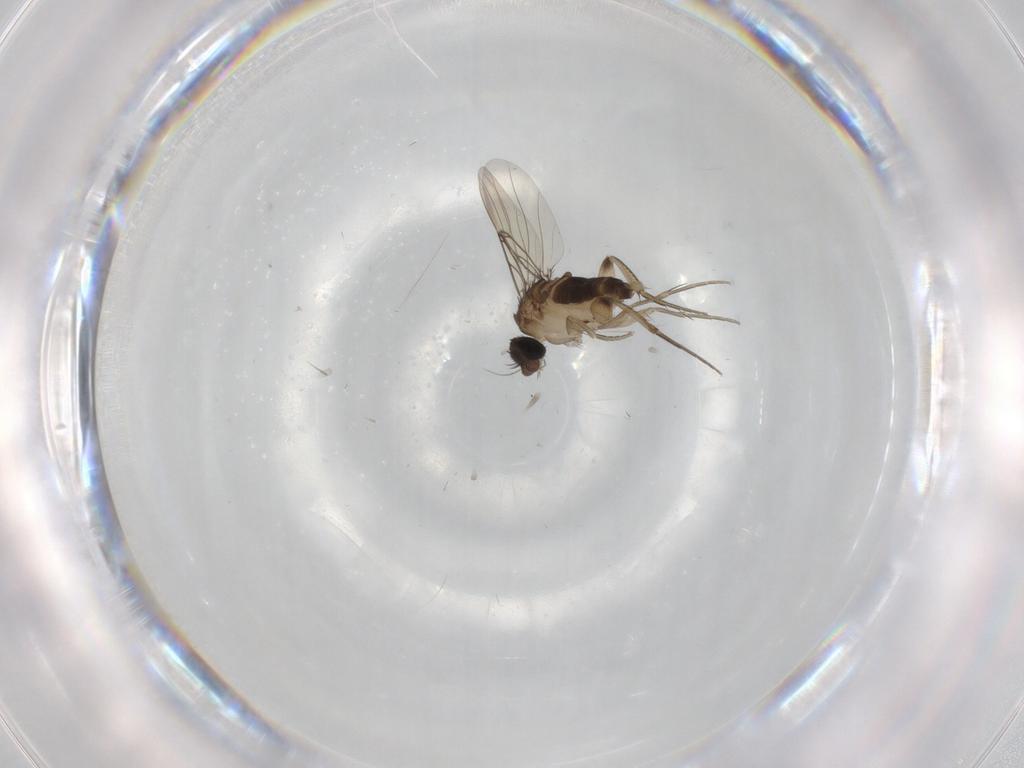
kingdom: Animalia
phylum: Arthropoda
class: Insecta
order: Diptera
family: Phoridae
